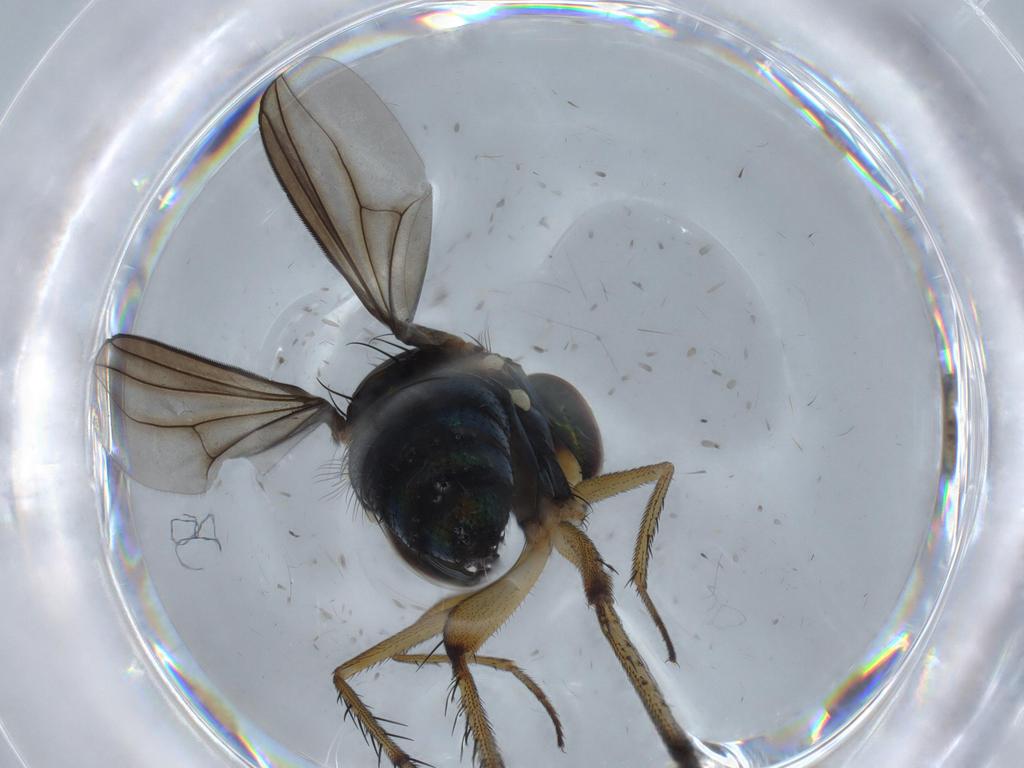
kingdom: Animalia
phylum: Arthropoda
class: Insecta
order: Diptera
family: Dolichopodidae
